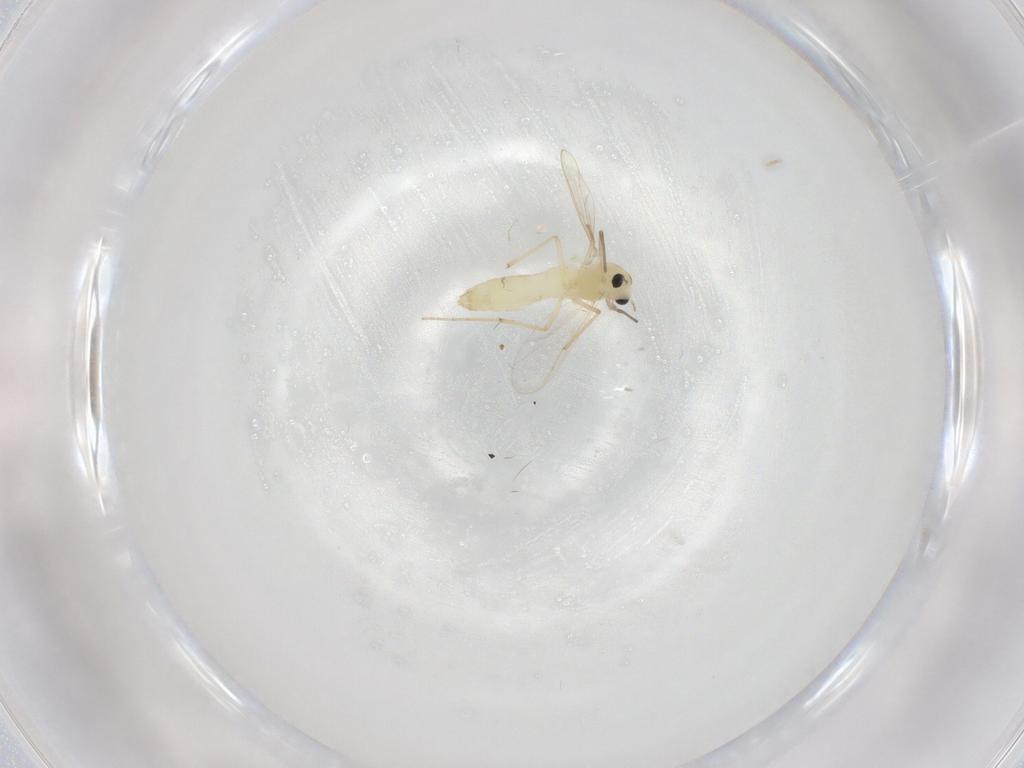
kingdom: Animalia
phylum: Arthropoda
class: Insecta
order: Diptera
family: Chironomidae
